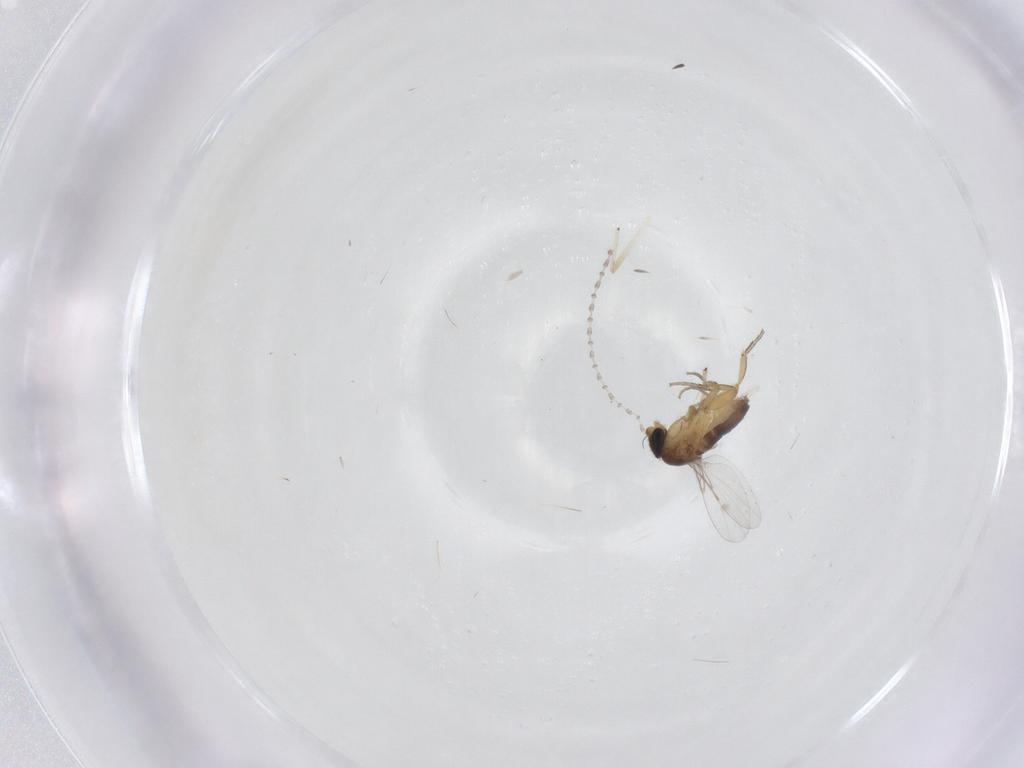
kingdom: Animalia
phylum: Arthropoda
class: Insecta
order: Diptera
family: Cecidomyiidae
